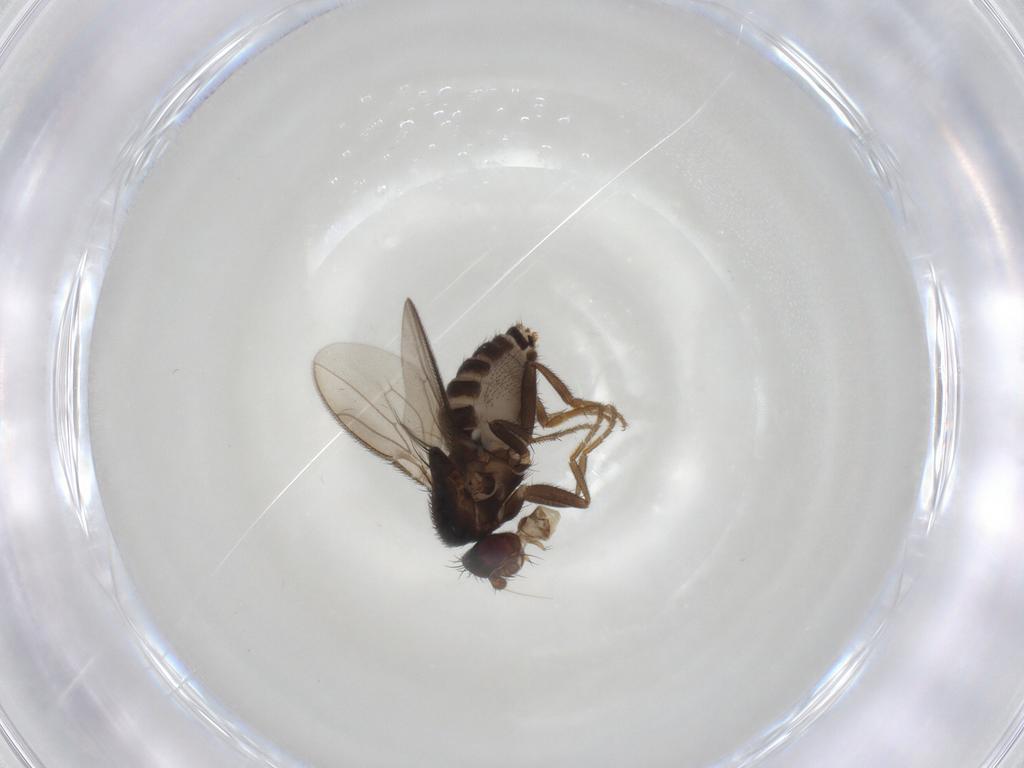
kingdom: Animalia
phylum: Arthropoda
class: Insecta
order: Diptera
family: Sphaeroceridae
